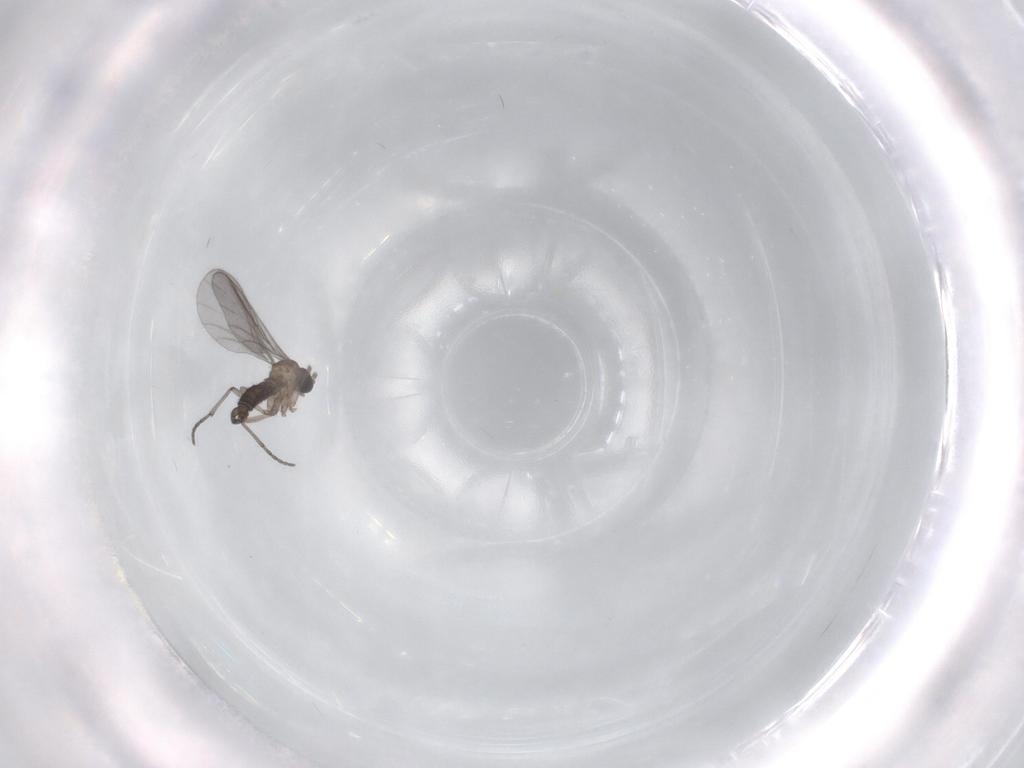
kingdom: Animalia
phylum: Arthropoda
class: Insecta
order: Diptera
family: Sciaridae
